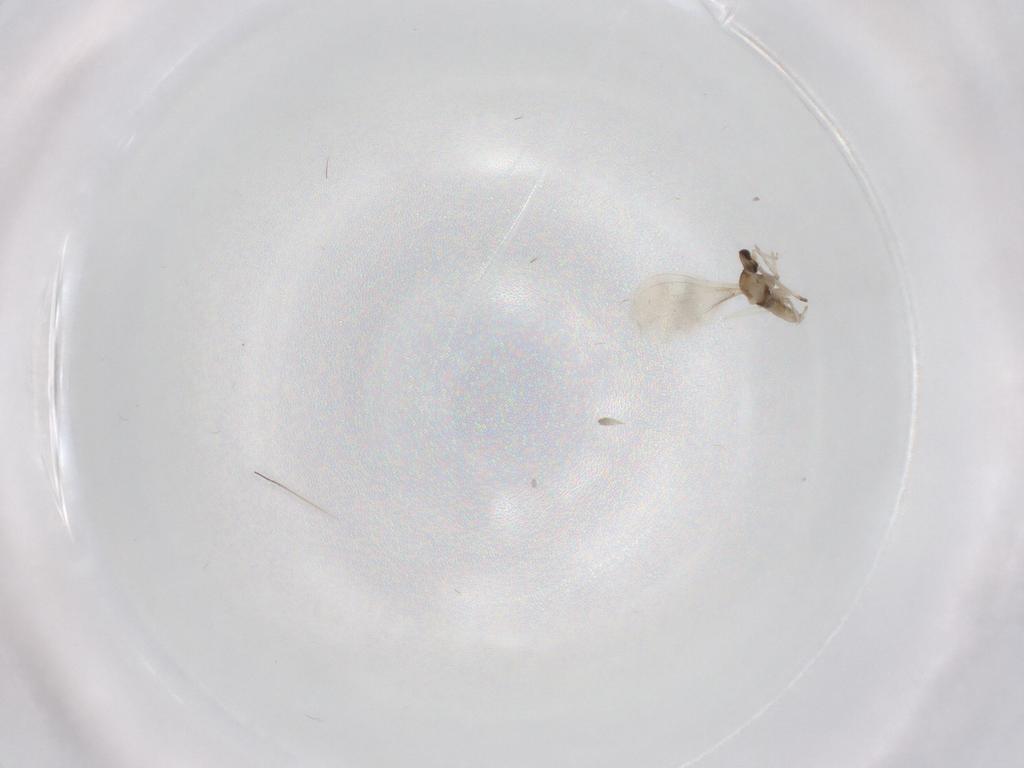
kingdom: Animalia
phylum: Arthropoda
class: Insecta
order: Diptera
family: Cecidomyiidae
